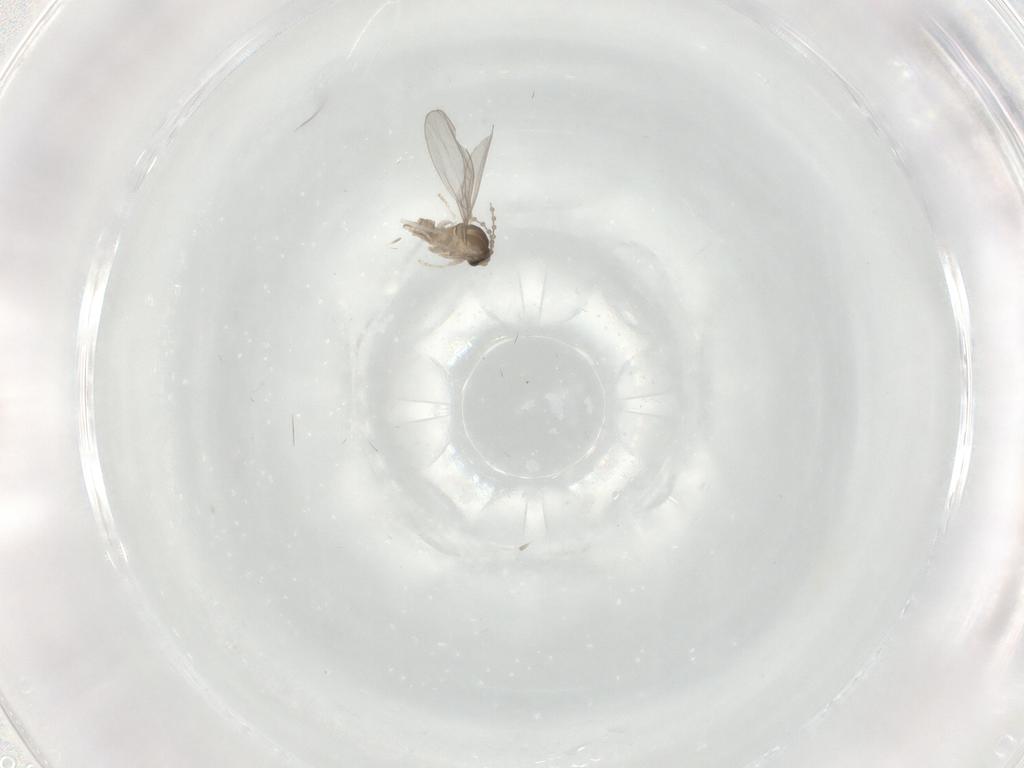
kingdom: Animalia
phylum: Arthropoda
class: Insecta
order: Diptera
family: Cecidomyiidae
